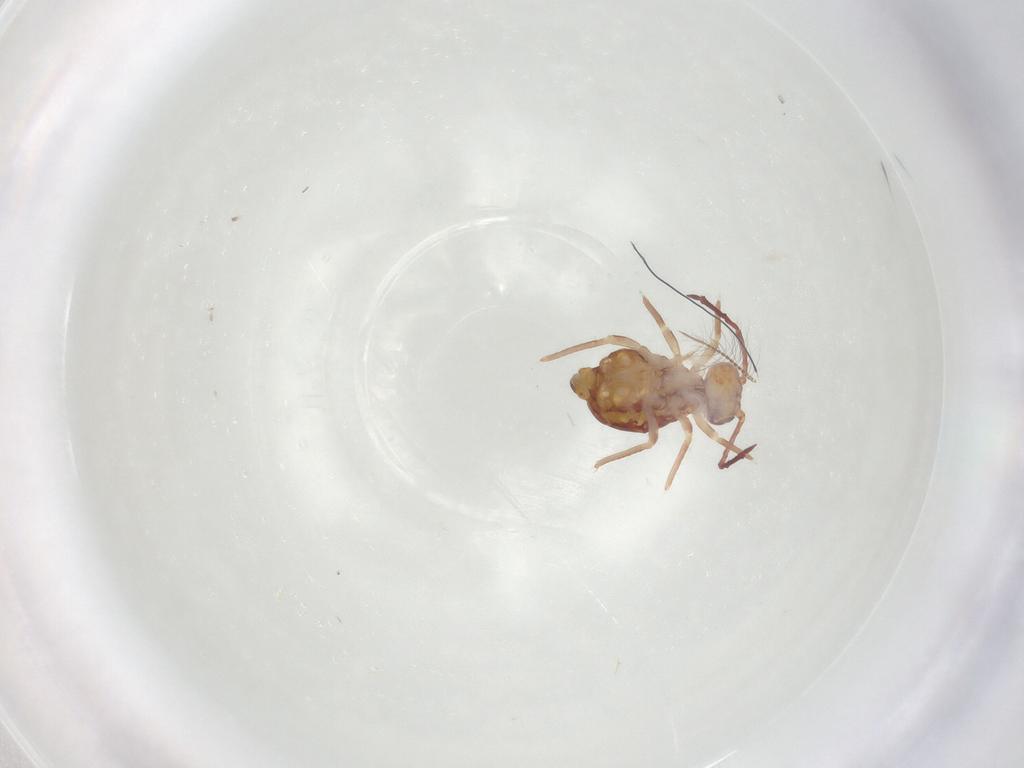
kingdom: Animalia
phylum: Arthropoda
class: Collembola
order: Symphypleona
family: Dicyrtomidae
